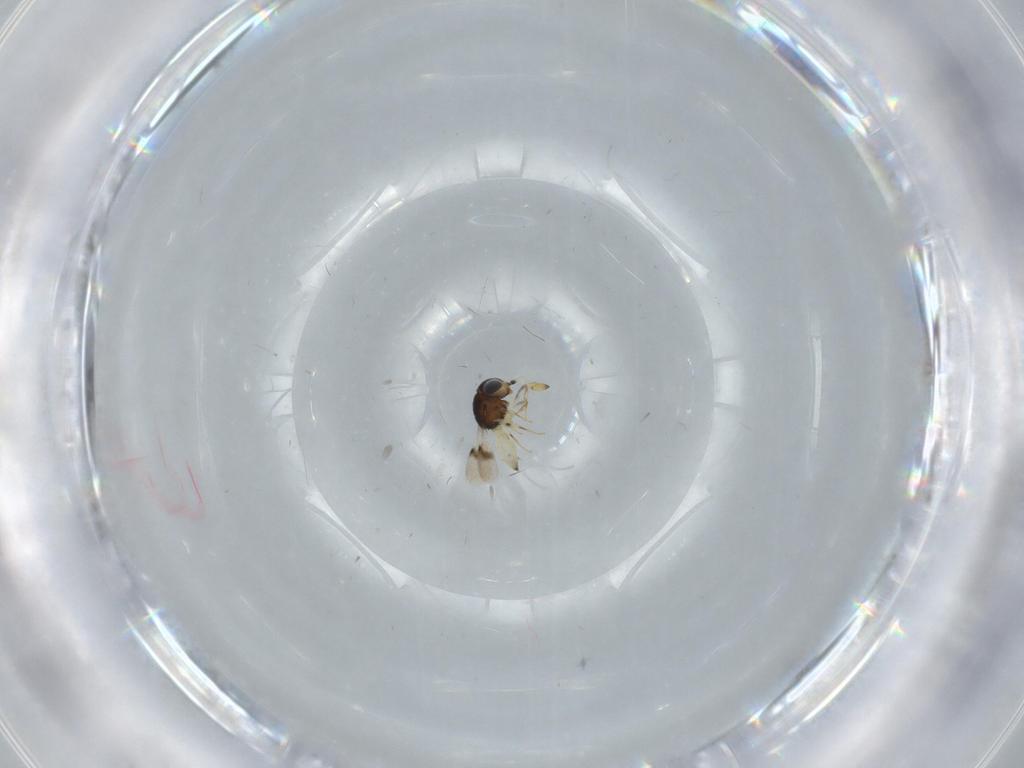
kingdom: Animalia
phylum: Arthropoda
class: Insecta
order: Hymenoptera
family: Scelionidae
